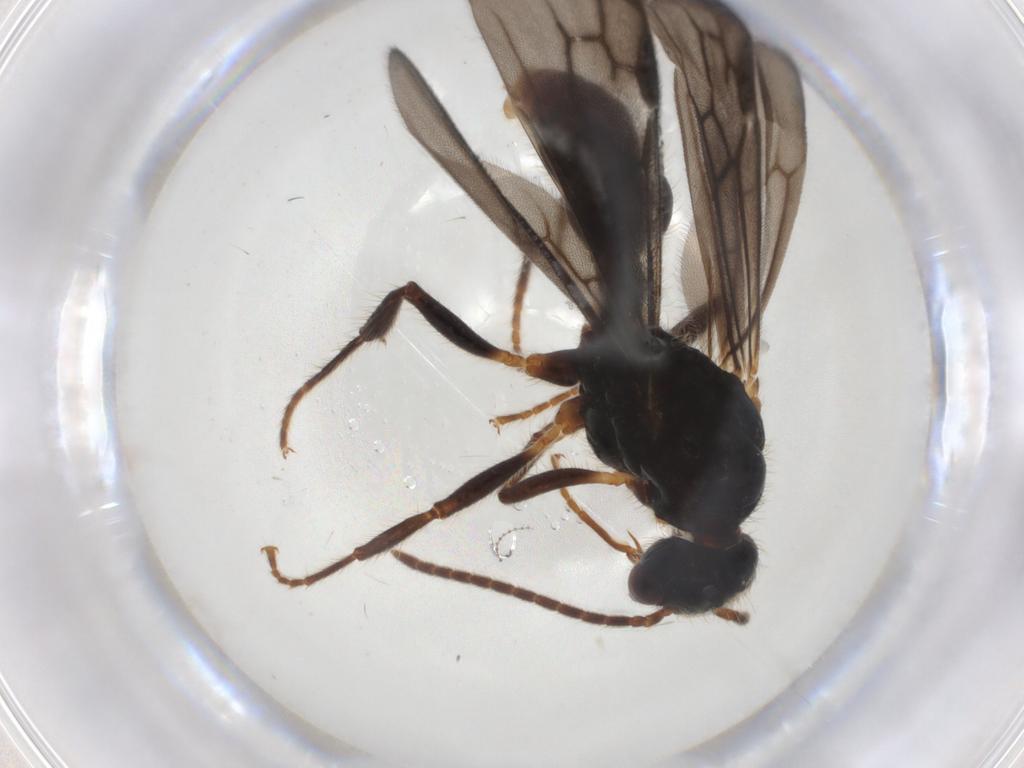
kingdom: Animalia
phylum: Arthropoda
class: Insecta
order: Hymenoptera
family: Formicidae
